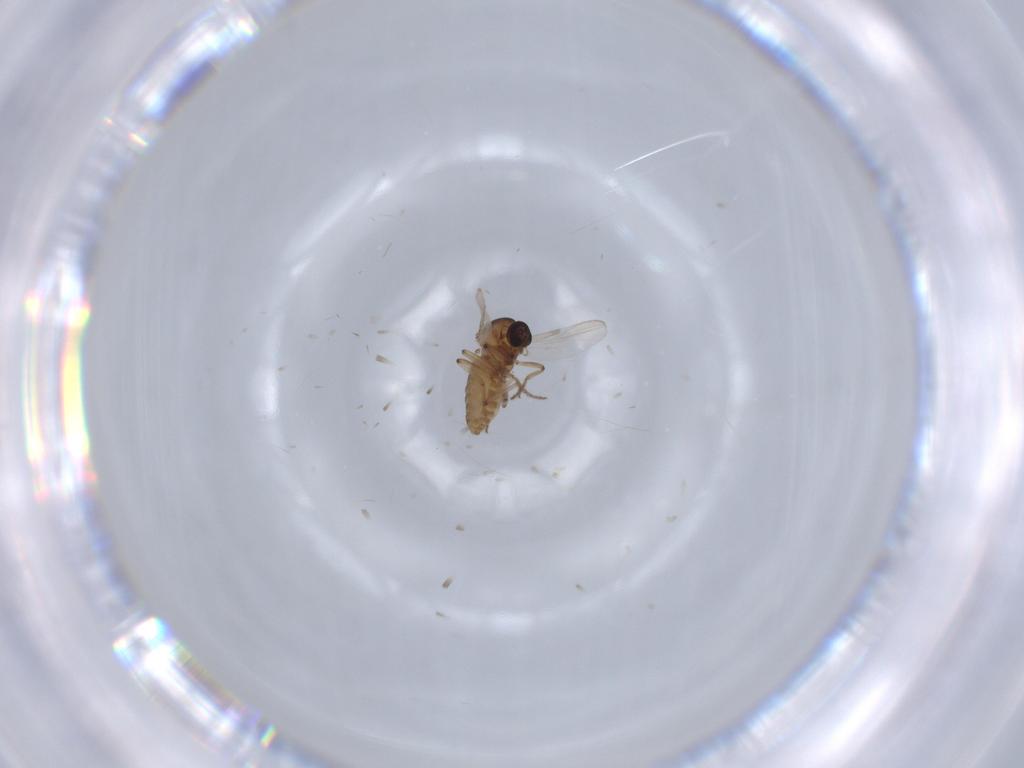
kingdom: Animalia
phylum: Arthropoda
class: Insecta
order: Diptera
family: Ceratopogonidae
